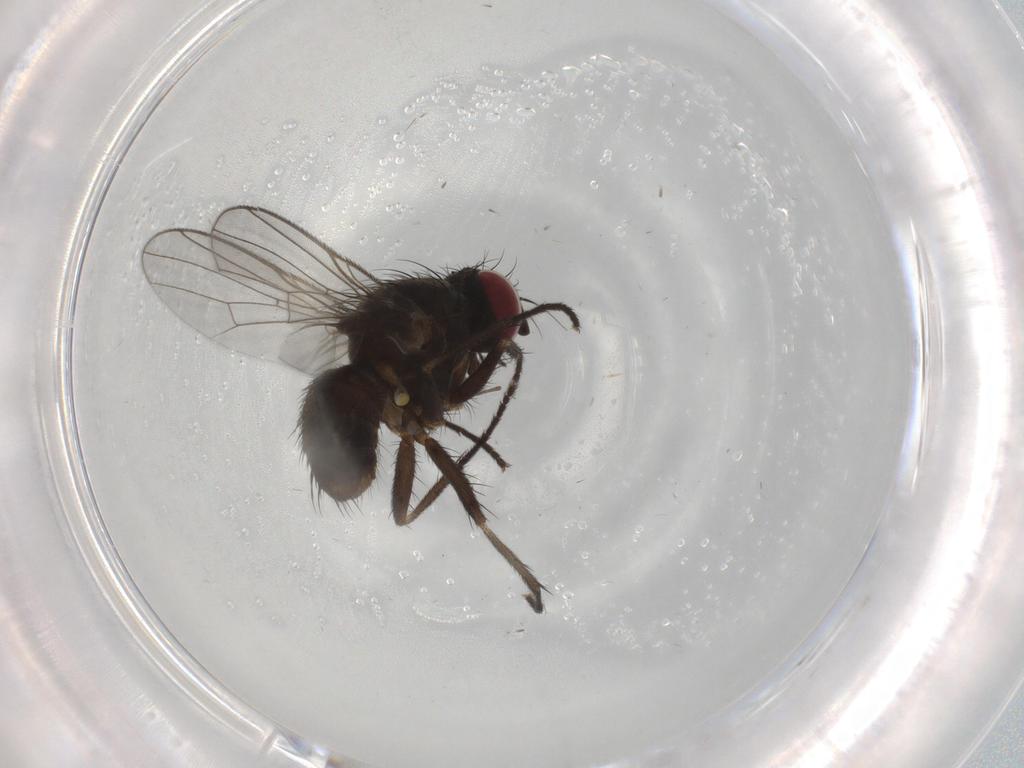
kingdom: Animalia
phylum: Arthropoda
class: Insecta
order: Diptera
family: Muscidae
